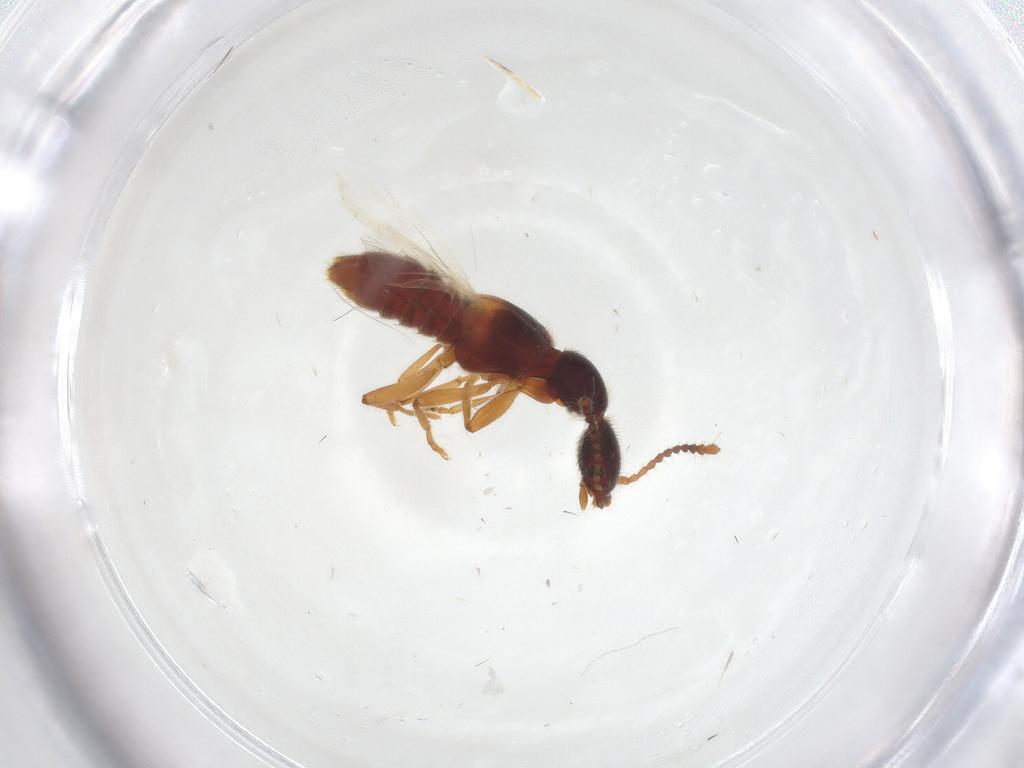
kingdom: Animalia
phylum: Arthropoda
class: Insecta
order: Coleoptera
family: Staphylinidae
